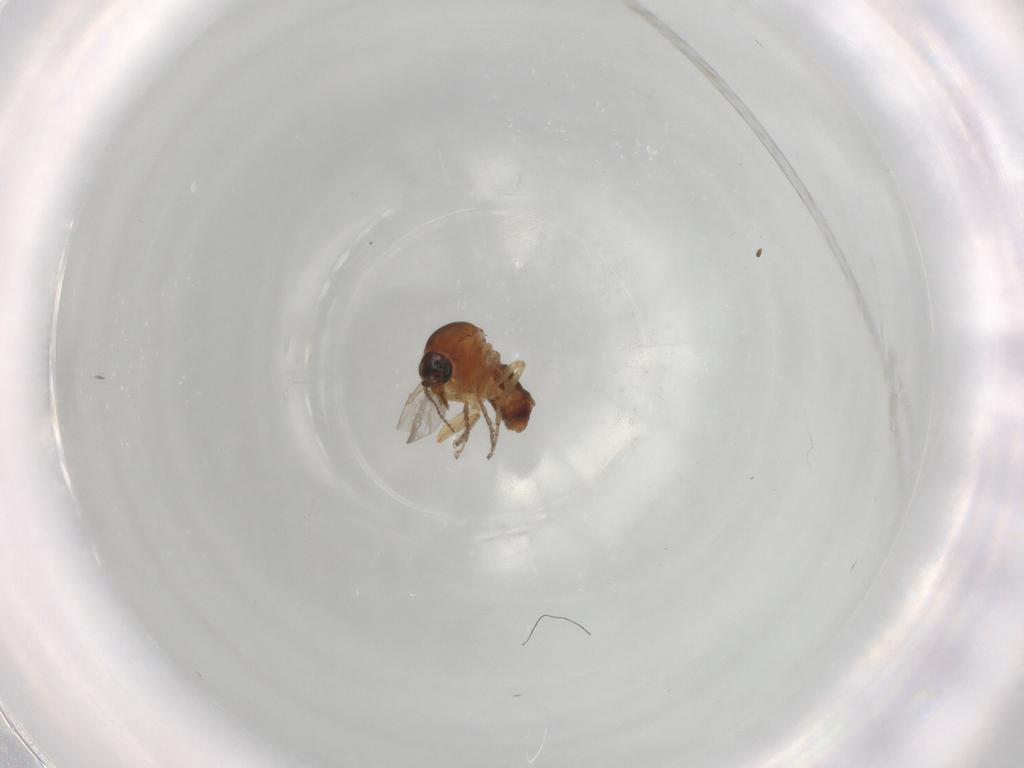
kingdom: Animalia
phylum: Arthropoda
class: Insecta
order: Diptera
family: Ceratopogonidae
